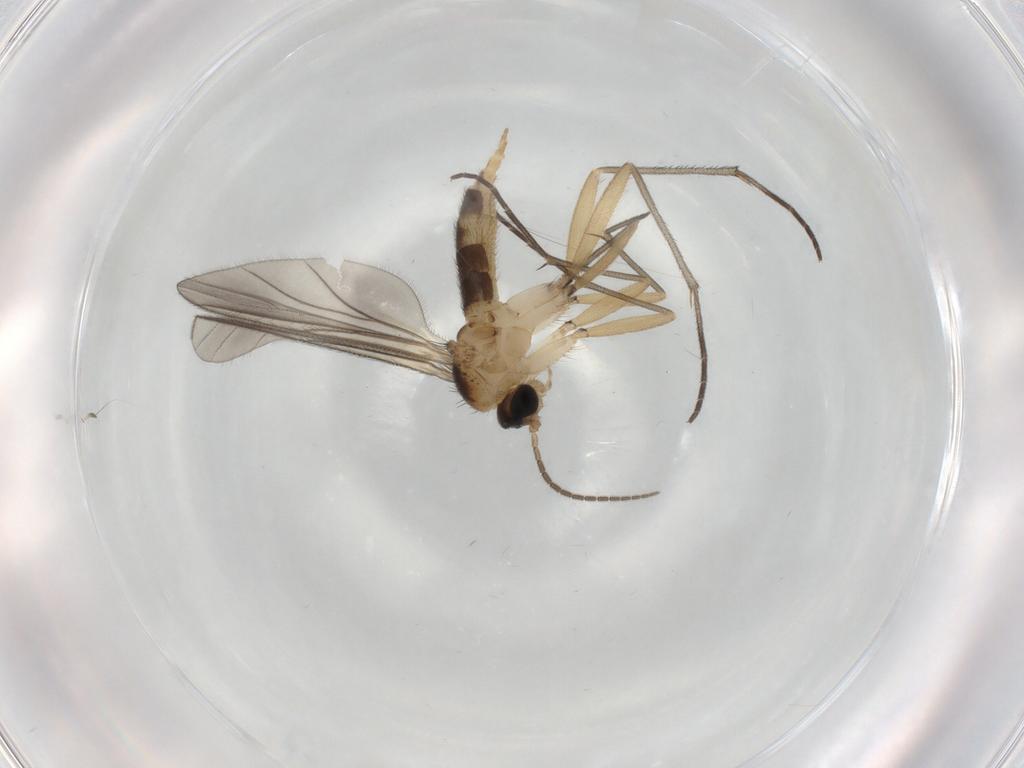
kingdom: Animalia
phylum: Arthropoda
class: Insecta
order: Diptera
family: Sciaridae
